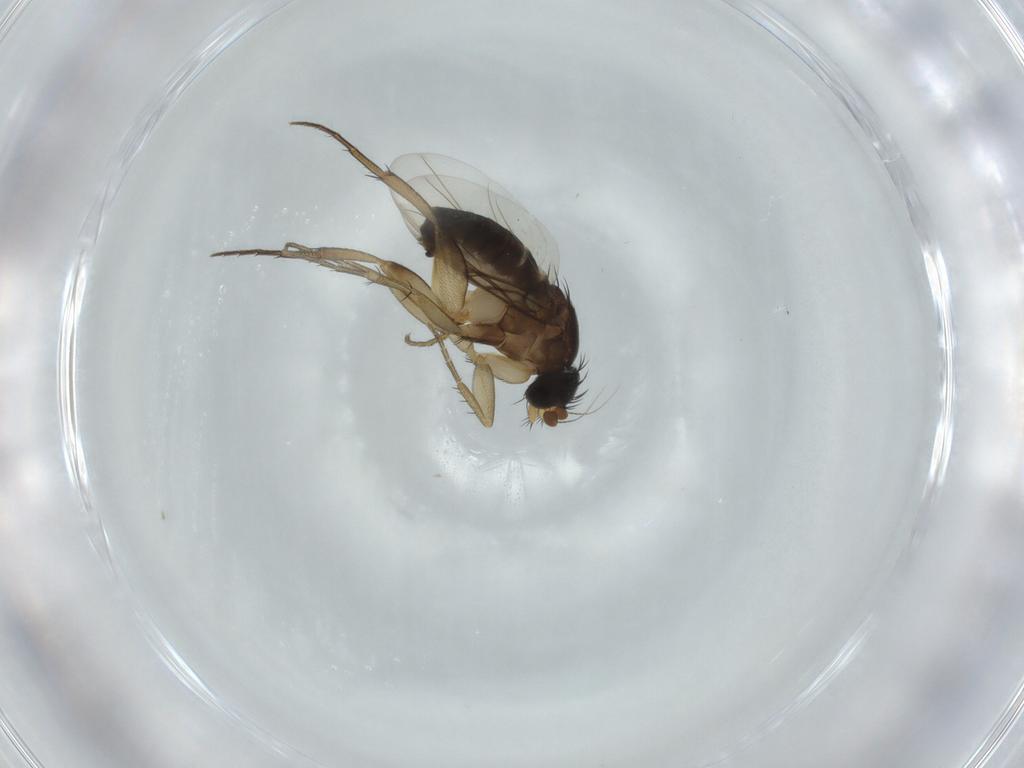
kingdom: Animalia
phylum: Arthropoda
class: Insecta
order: Diptera
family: Phoridae
